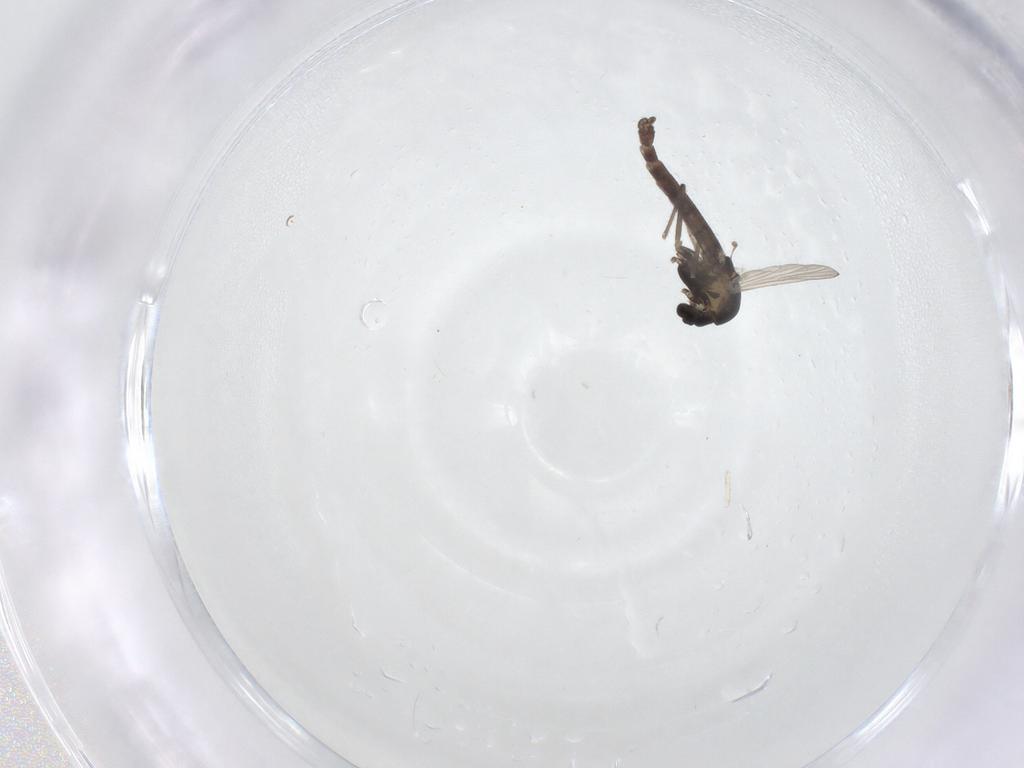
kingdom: Animalia
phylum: Arthropoda
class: Insecta
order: Diptera
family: Chironomidae
